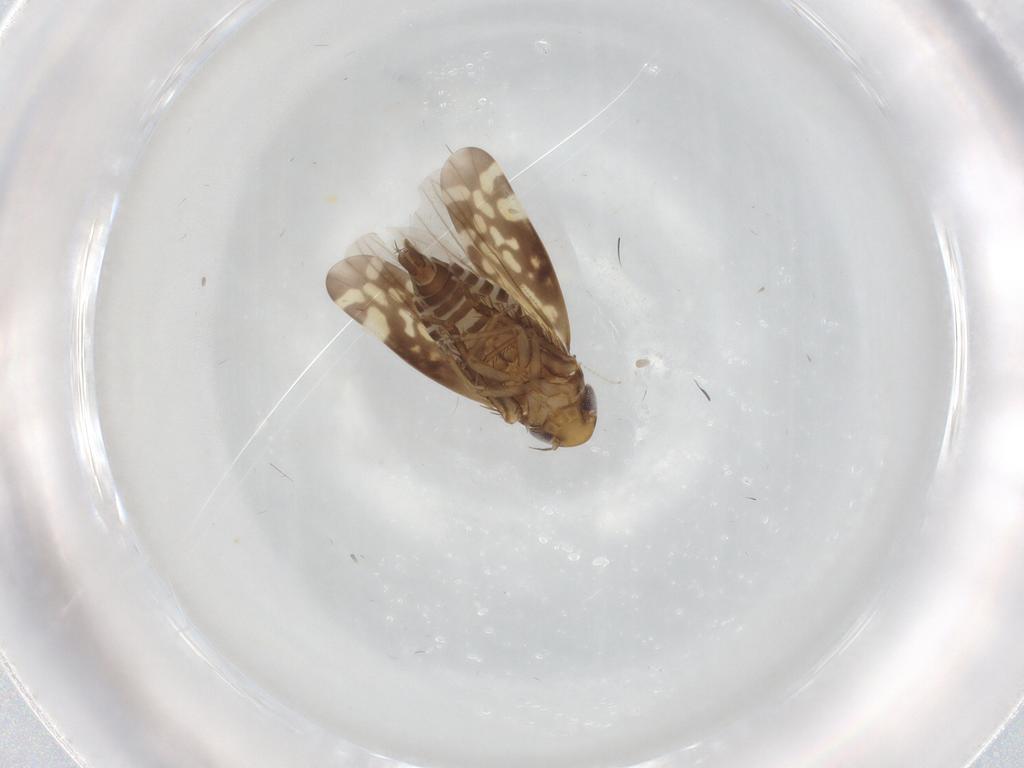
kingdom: Animalia
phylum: Arthropoda
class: Insecta
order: Hemiptera
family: Cicadellidae
